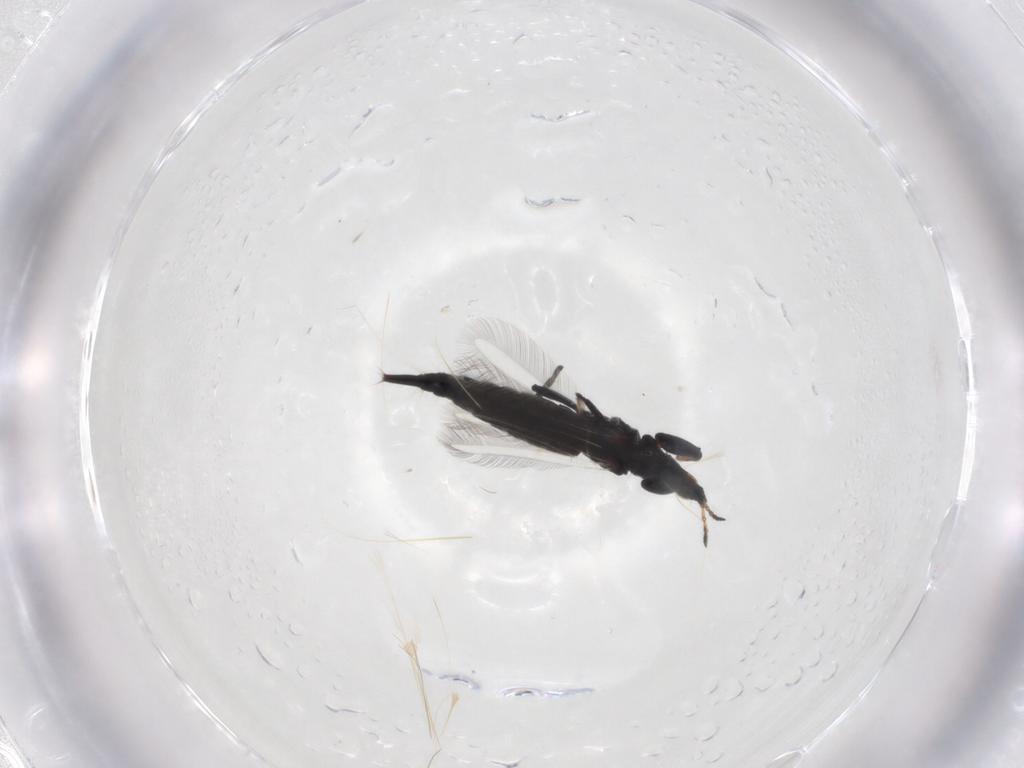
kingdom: Animalia
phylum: Arthropoda
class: Insecta
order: Thysanoptera
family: Phlaeothripidae
